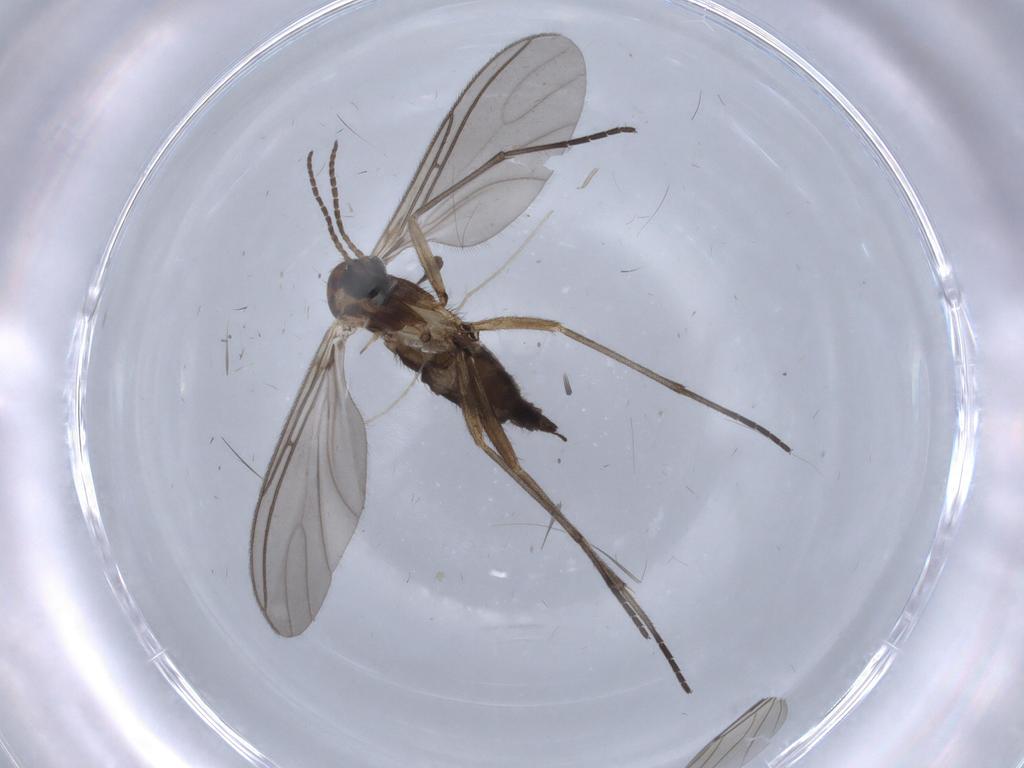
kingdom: Animalia
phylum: Arthropoda
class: Insecta
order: Diptera
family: Sciaridae
